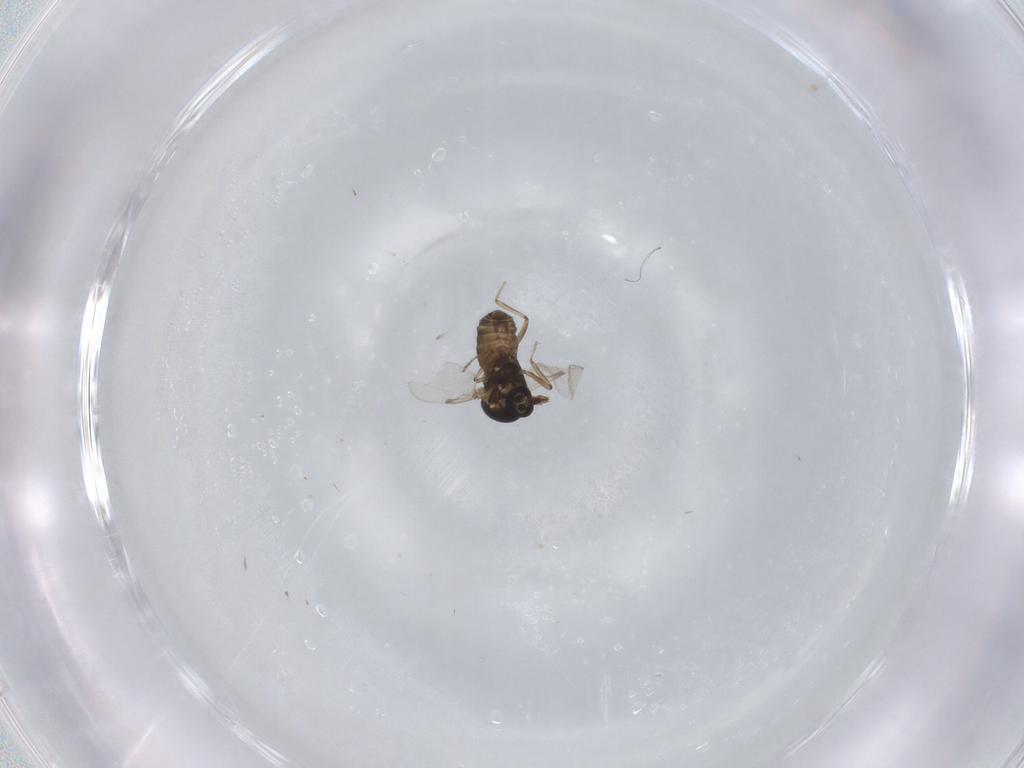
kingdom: Animalia
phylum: Arthropoda
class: Insecta
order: Diptera
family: Ceratopogonidae
